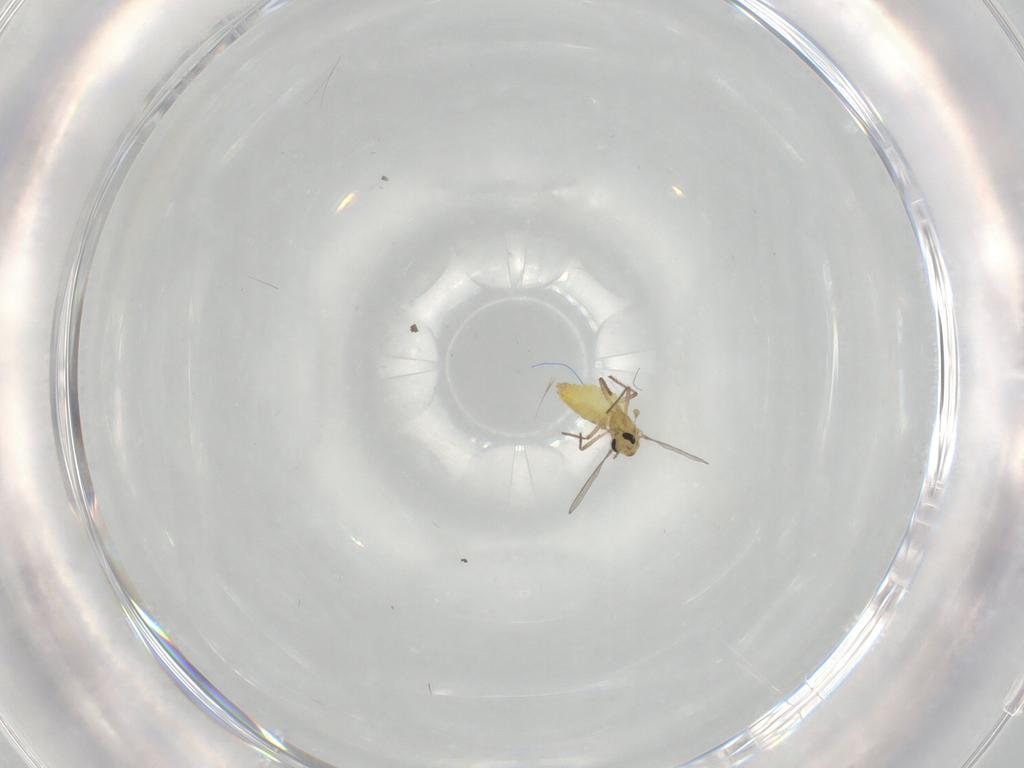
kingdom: Animalia
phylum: Arthropoda
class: Insecta
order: Diptera
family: Chironomidae
